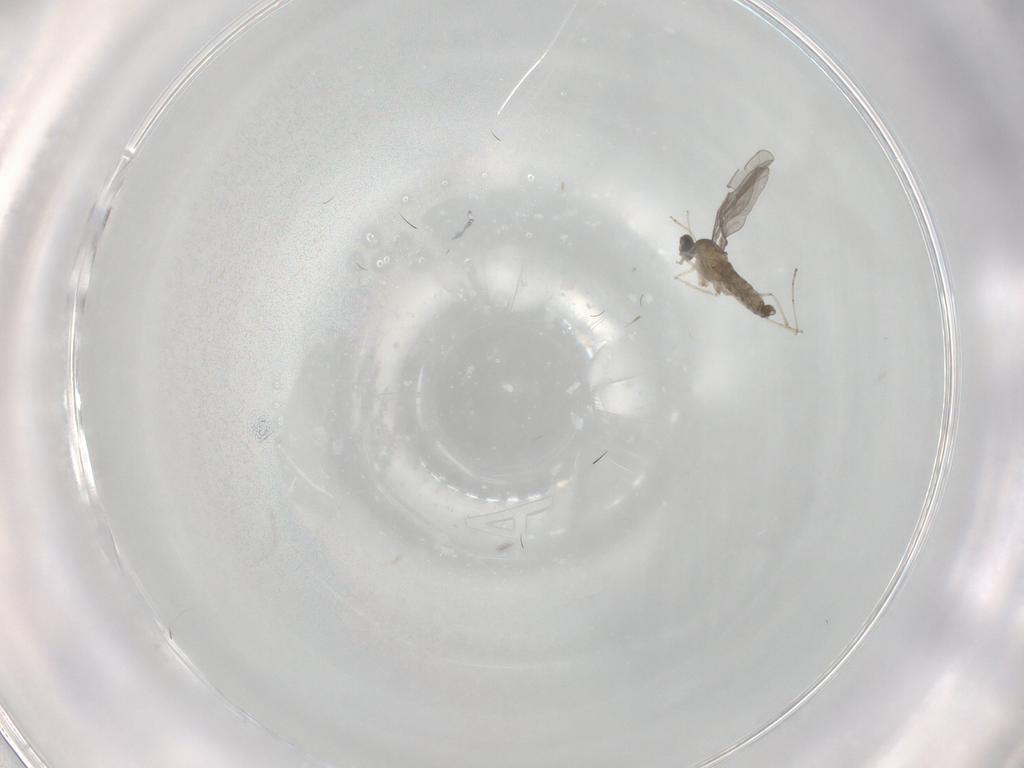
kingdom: Animalia
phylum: Arthropoda
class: Insecta
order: Diptera
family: Cecidomyiidae
